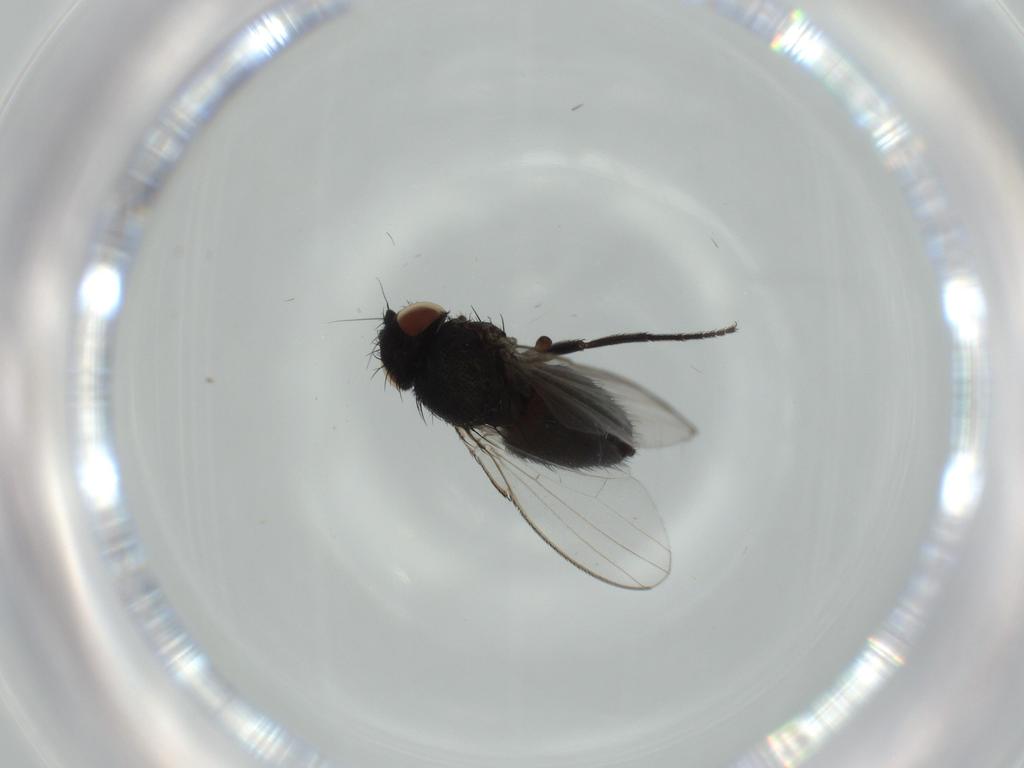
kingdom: Animalia
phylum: Arthropoda
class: Insecta
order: Diptera
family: Milichiidae
